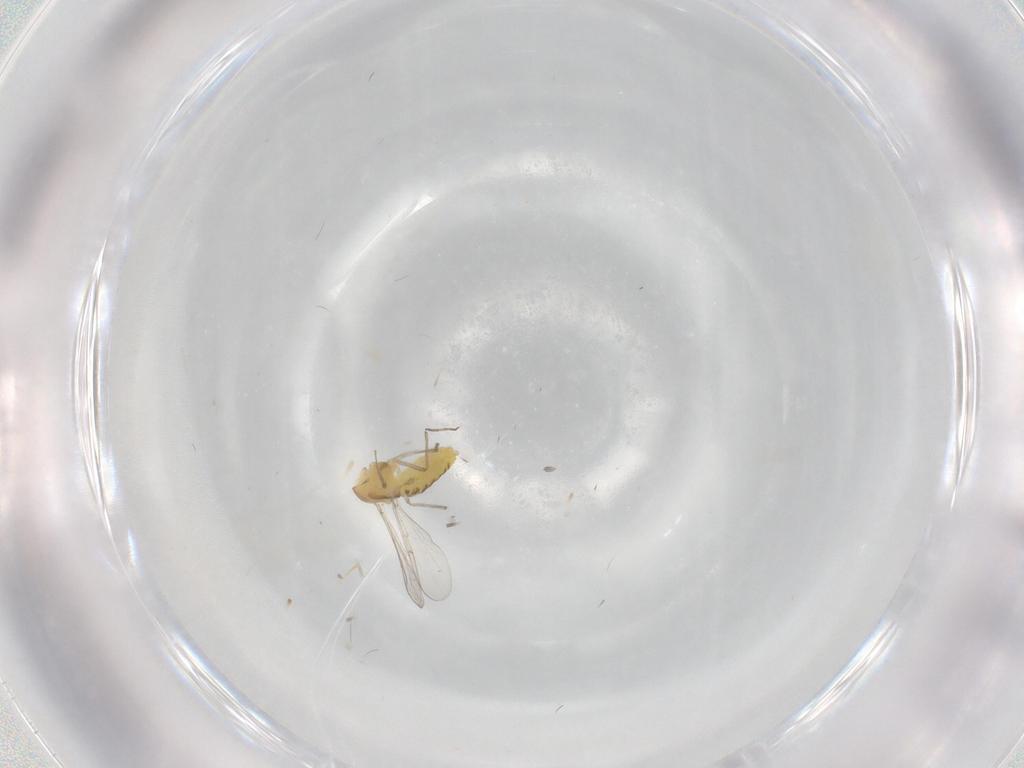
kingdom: Animalia
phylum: Arthropoda
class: Insecta
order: Diptera
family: Chironomidae
